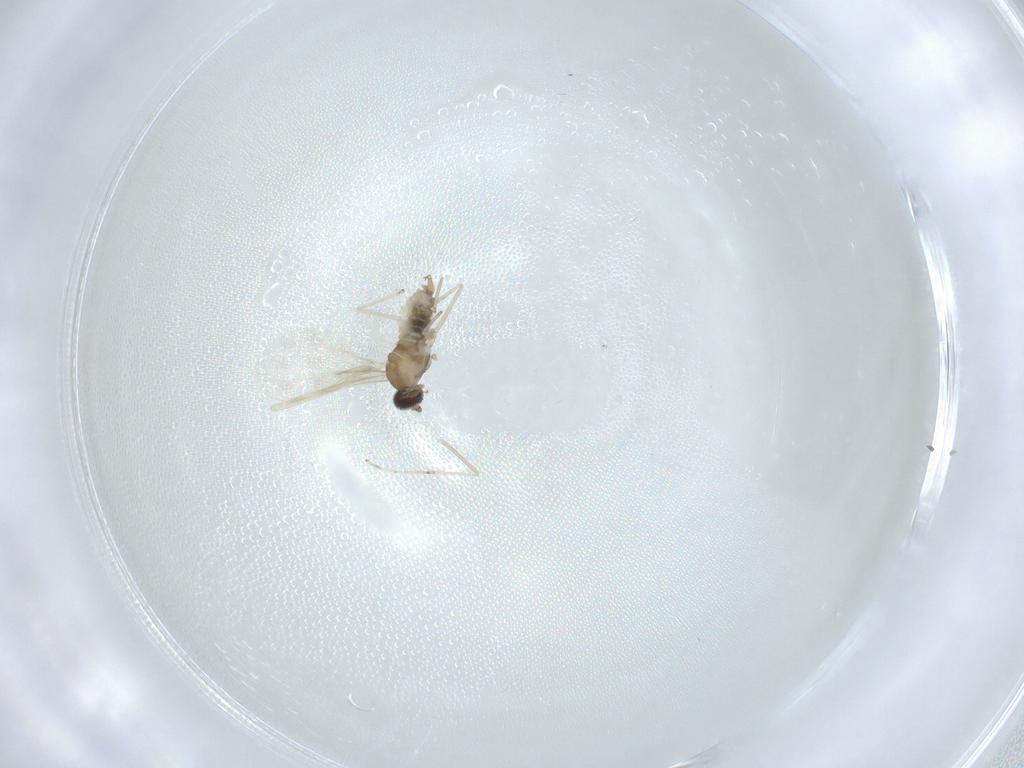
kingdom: Animalia
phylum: Arthropoda
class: Insecta
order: Diptera
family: Cecidomyiidae
